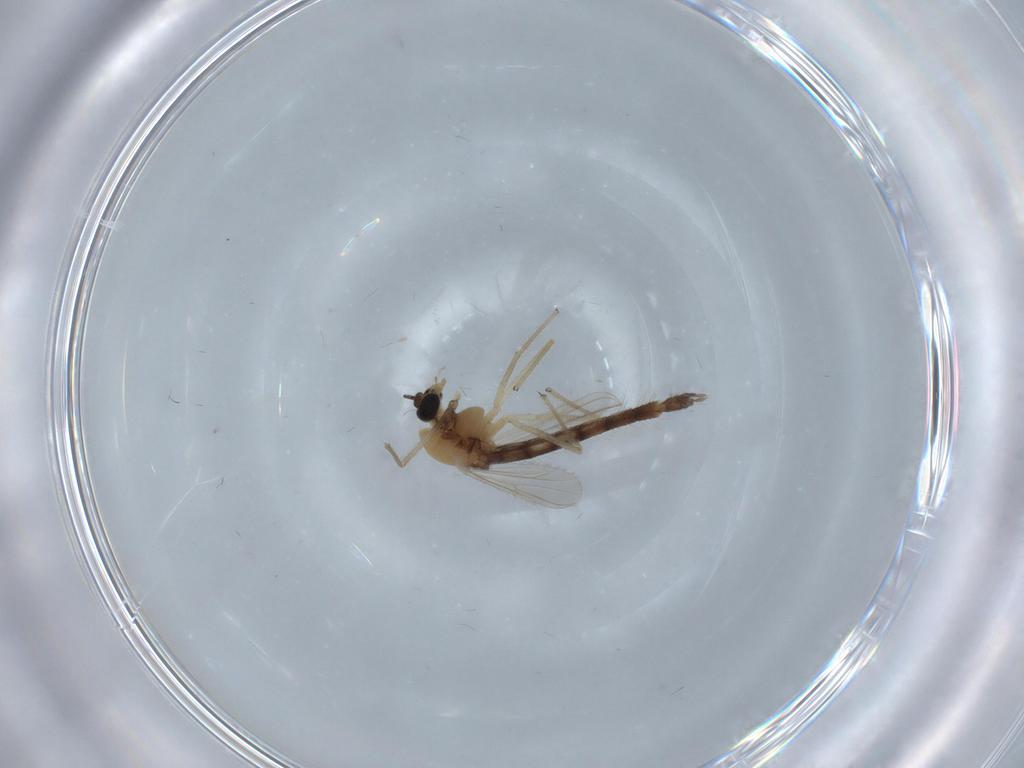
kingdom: Animalia
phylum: Arthropoda
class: Insecta
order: Diptera
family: Chironomidae
